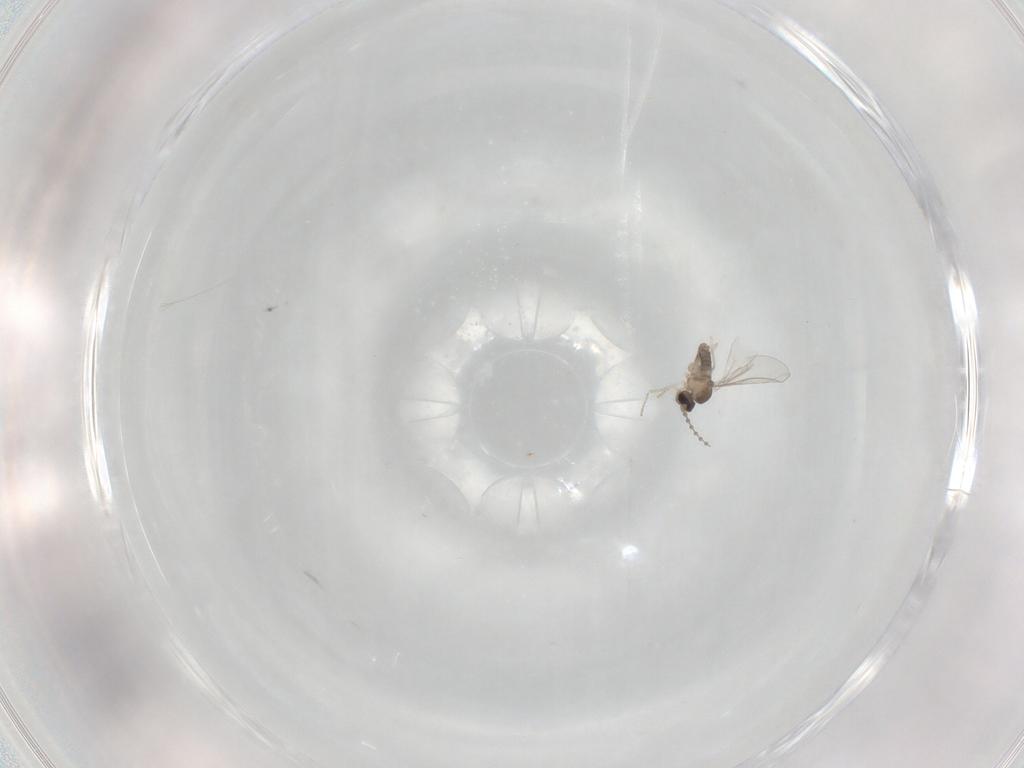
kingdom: Animalia
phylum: Arthropoda
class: Insecta
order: Diptera
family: Cecidomyiidae
